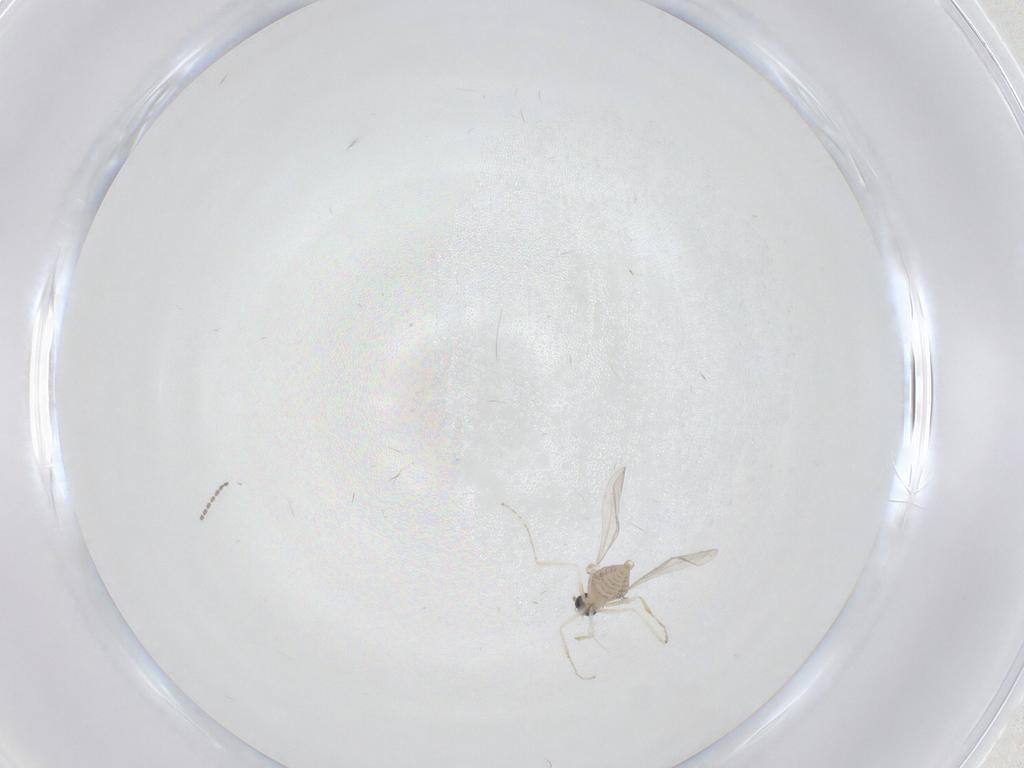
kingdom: Animalia
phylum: Arthropoda
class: Insecta
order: Diptera
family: Cecidomyiidae
